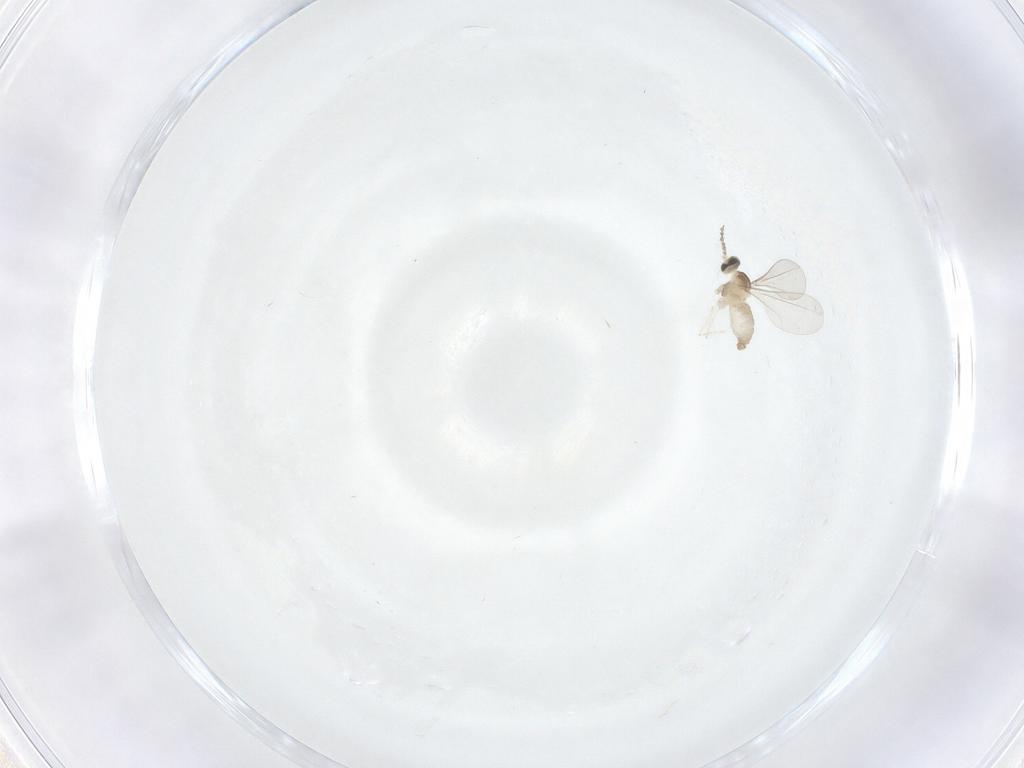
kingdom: Animalia
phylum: Arthropoda
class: Insecta
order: Diptera
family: Cecidomyiidae
